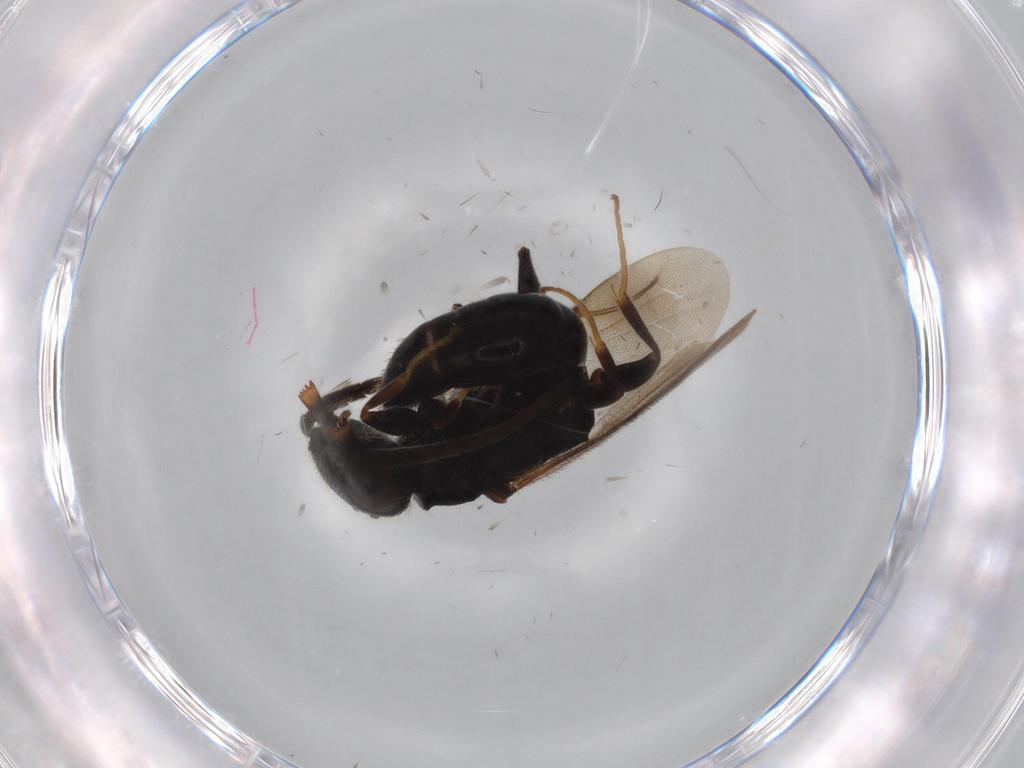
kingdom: Animalia
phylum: Arthropoda
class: Insecta
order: Hymenoptera
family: Bethylidae
